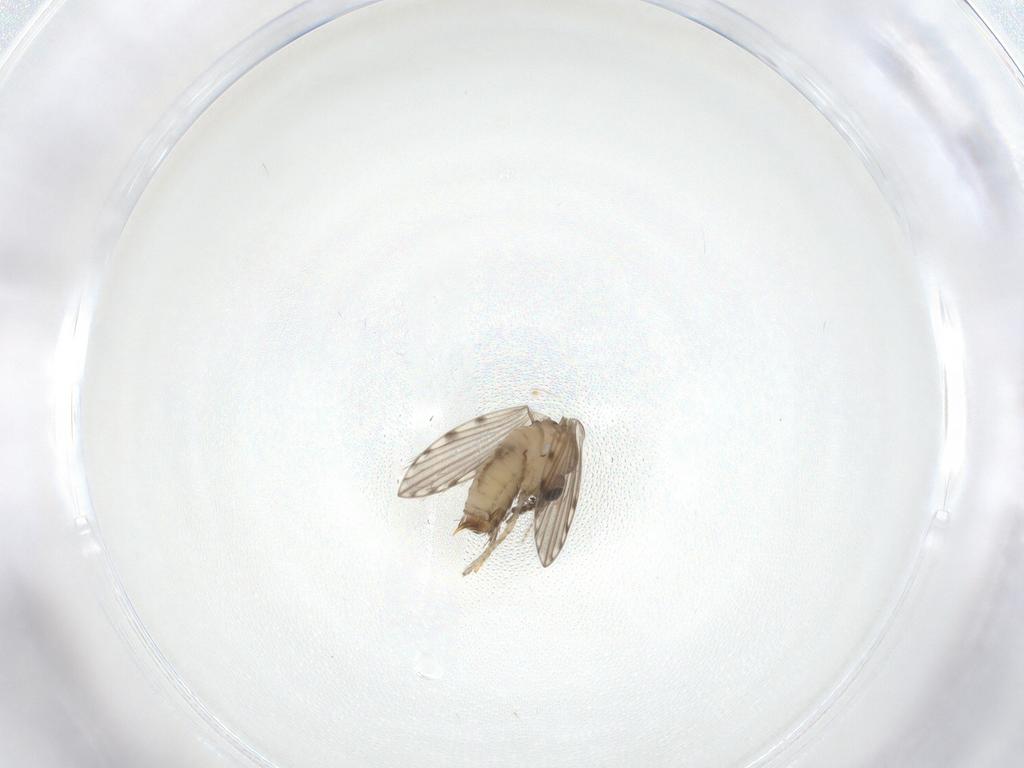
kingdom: Animalia
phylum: Arthropoda
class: Insecta
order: Diptera
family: Psychodidae
